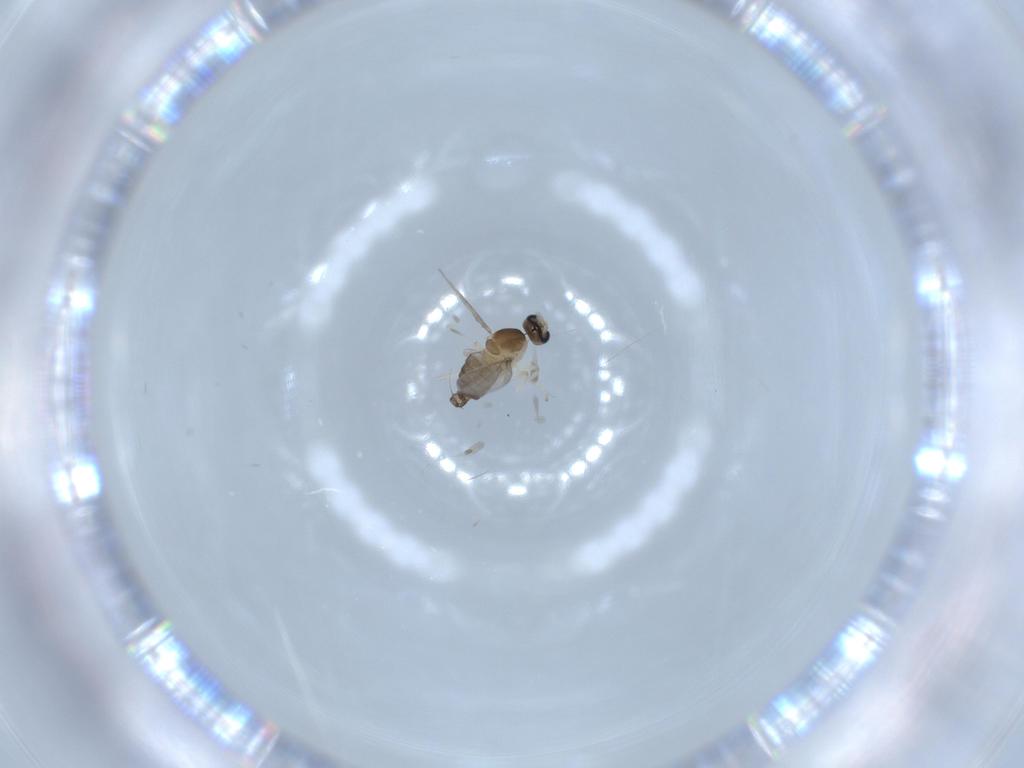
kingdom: Animalia
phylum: Arthropoda
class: Insecta
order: Diptera
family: Cecidomyiidae
